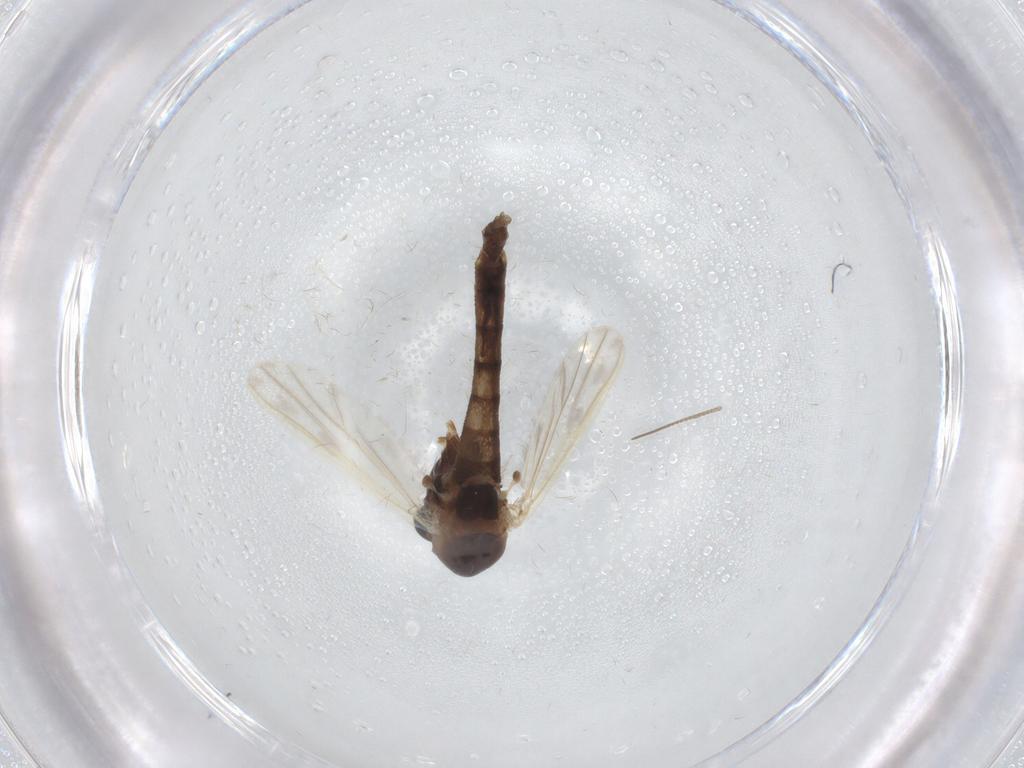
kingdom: Animalia
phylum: Arthropoda
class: Insecta
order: Diptera
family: Chironomidae
